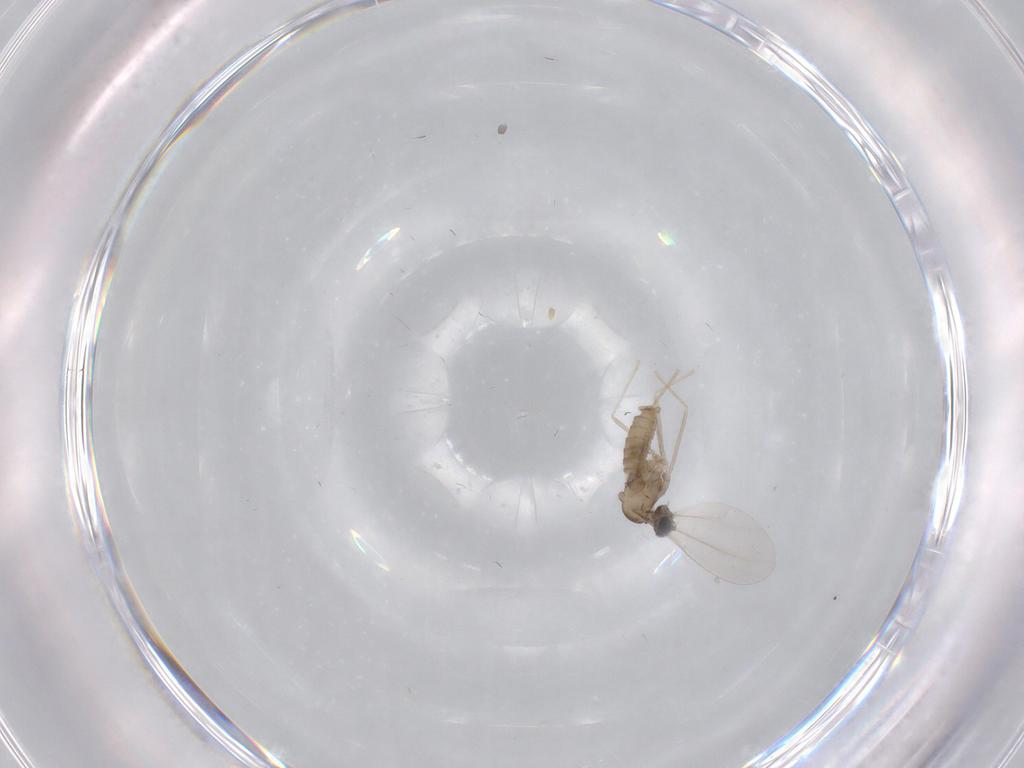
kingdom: Animalia
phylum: Arthropoda
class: Insecta
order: Diptera
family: Cecidomyiidae
